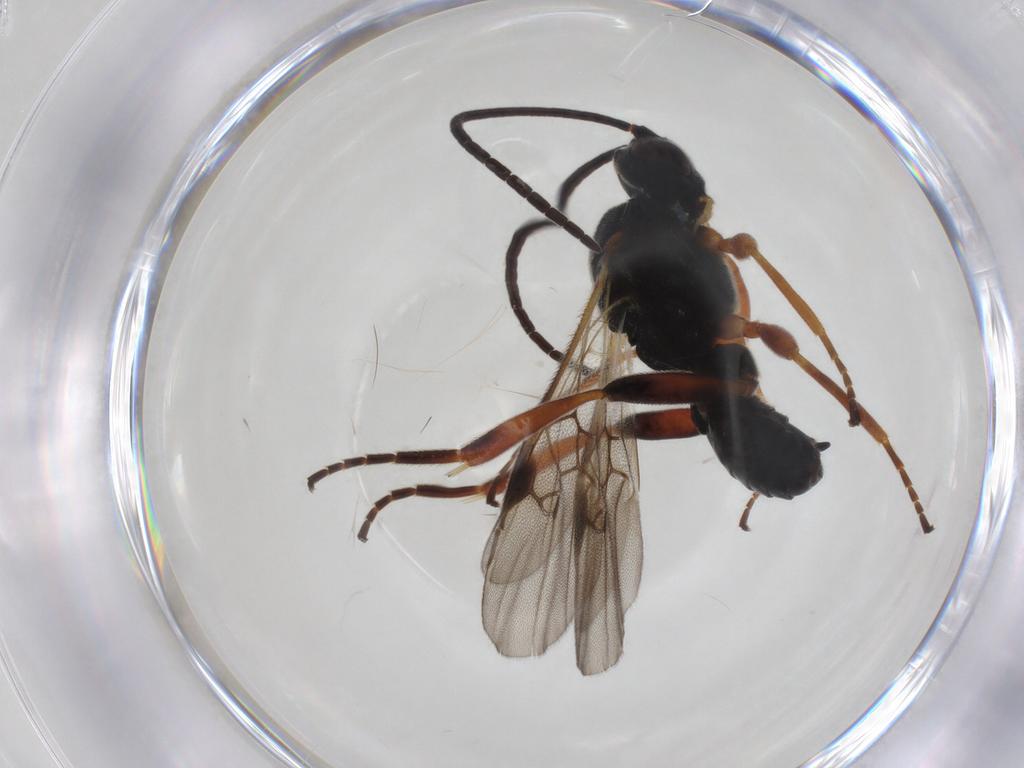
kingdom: Animalia
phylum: Arthropoda
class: Insecta
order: Hymenoptera
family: Braconidae
